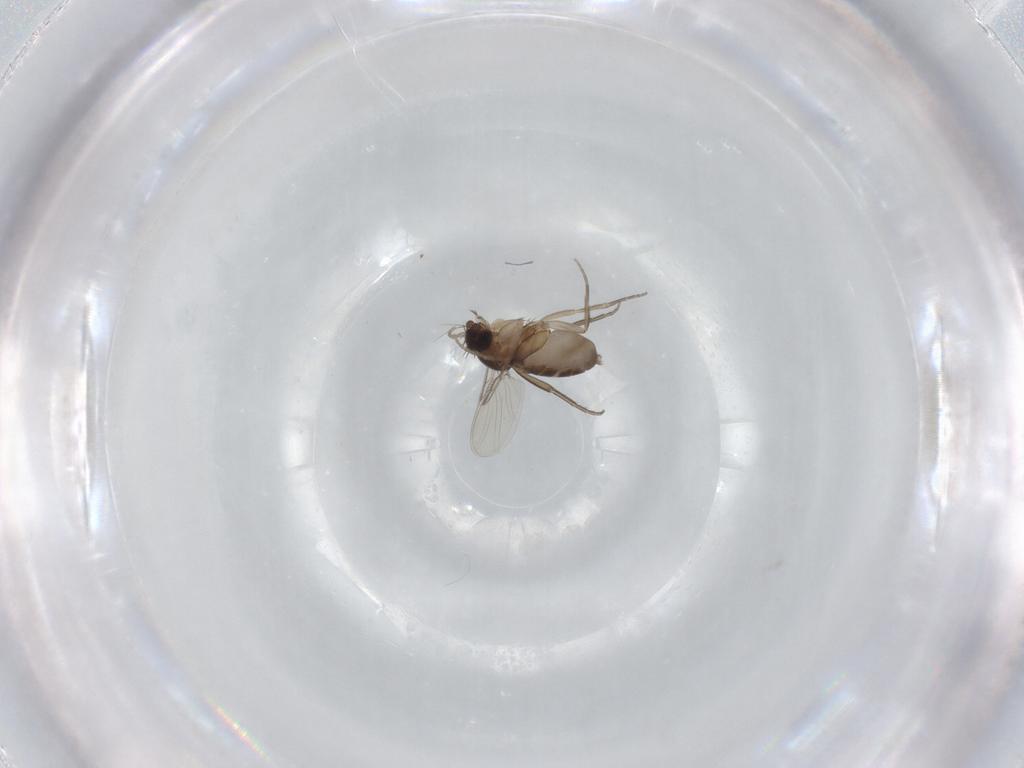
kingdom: Animalia
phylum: Arthropoda
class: Insecta
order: Diptera
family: Phoridae
